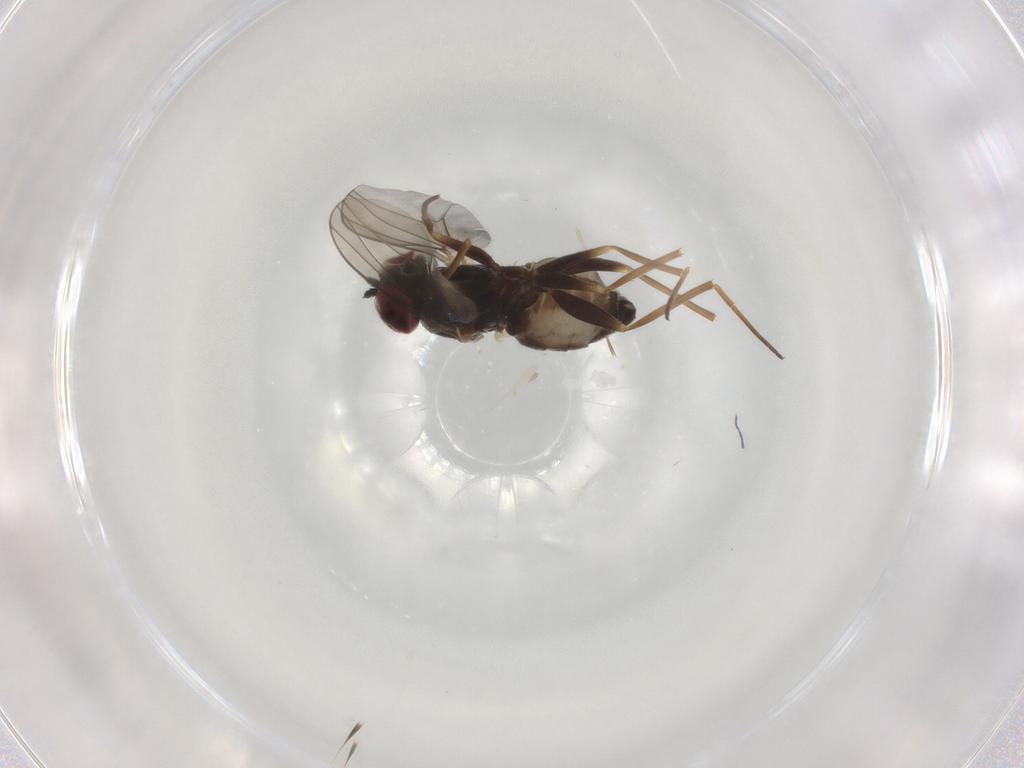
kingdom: Animalia
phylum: Arthropoda
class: Insecta
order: Diptera
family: Dolichopodidae
